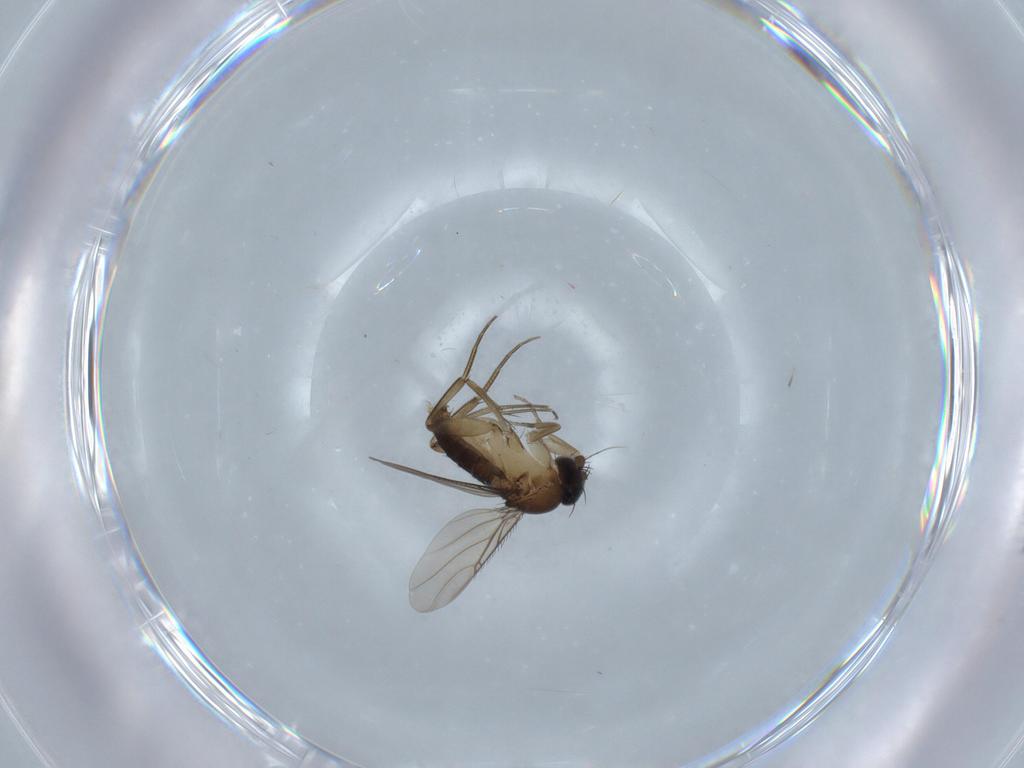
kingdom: Animalia
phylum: Arthropoda
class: Insecta
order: Diptera
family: Phoridae
